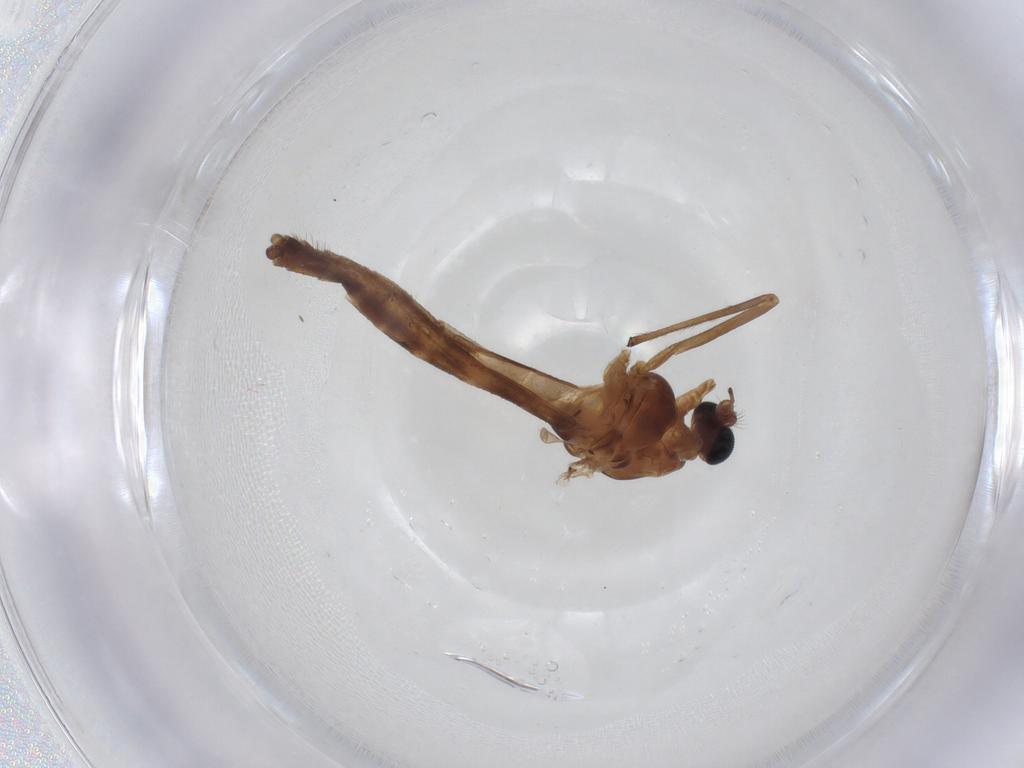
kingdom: Animalia
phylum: Arthropoda
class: Insecta
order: Diptera
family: Chironomidae
